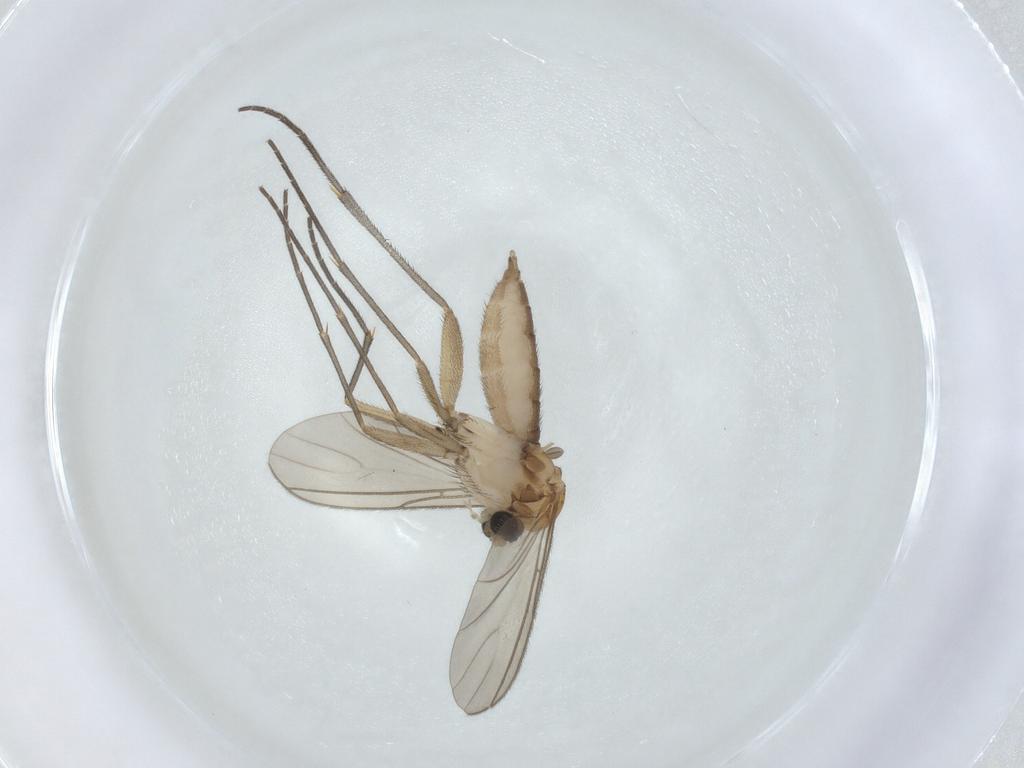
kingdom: Animalia
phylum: Arthropoda
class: Insecta
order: Diptera
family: Sciaridae
